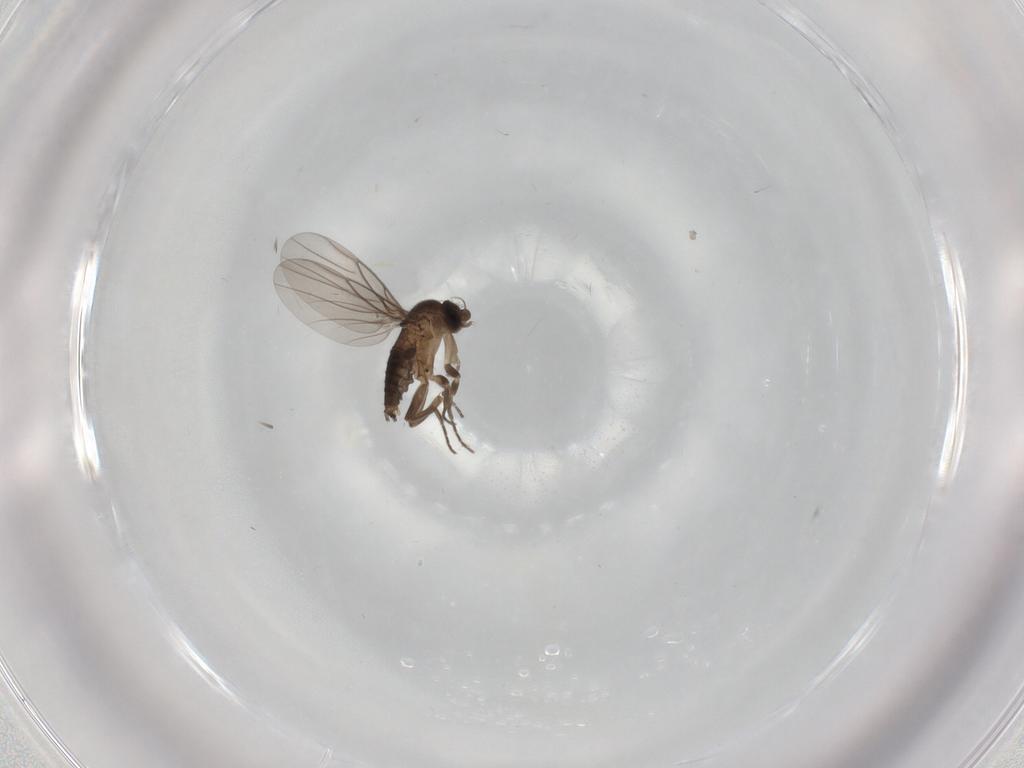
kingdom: Animalia
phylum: Arthropoda
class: Insecta
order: Diptera
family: Phoridae
